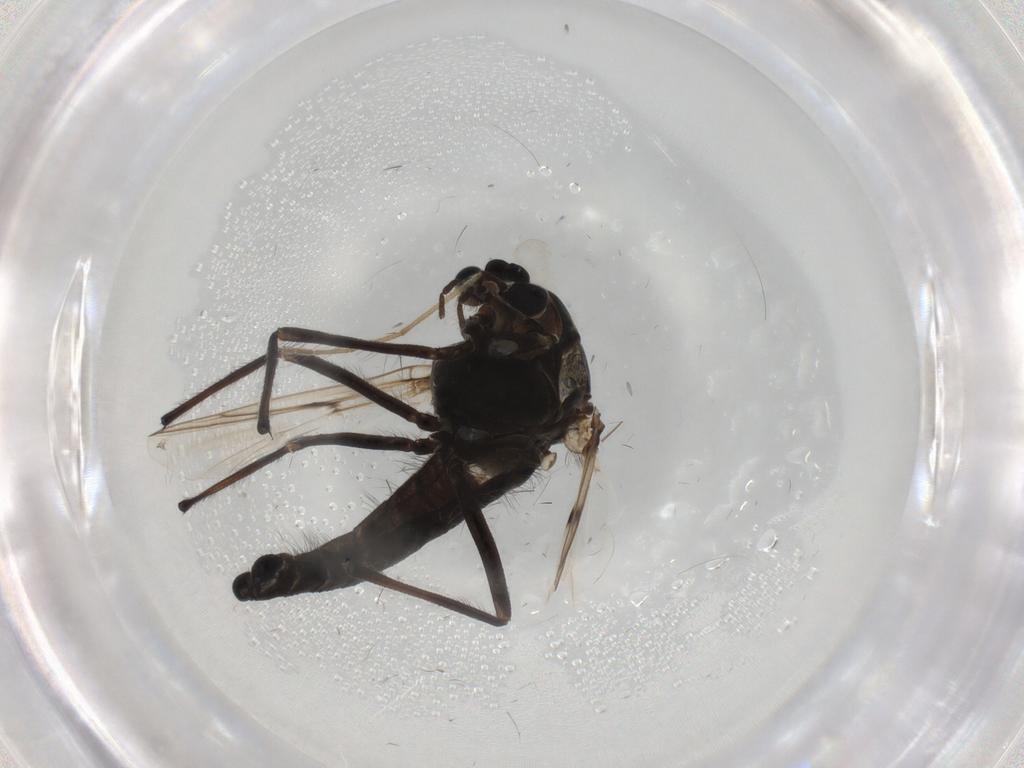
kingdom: Animalia
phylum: Arthropoda
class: Insecta
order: Diptera
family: Chironomidae
